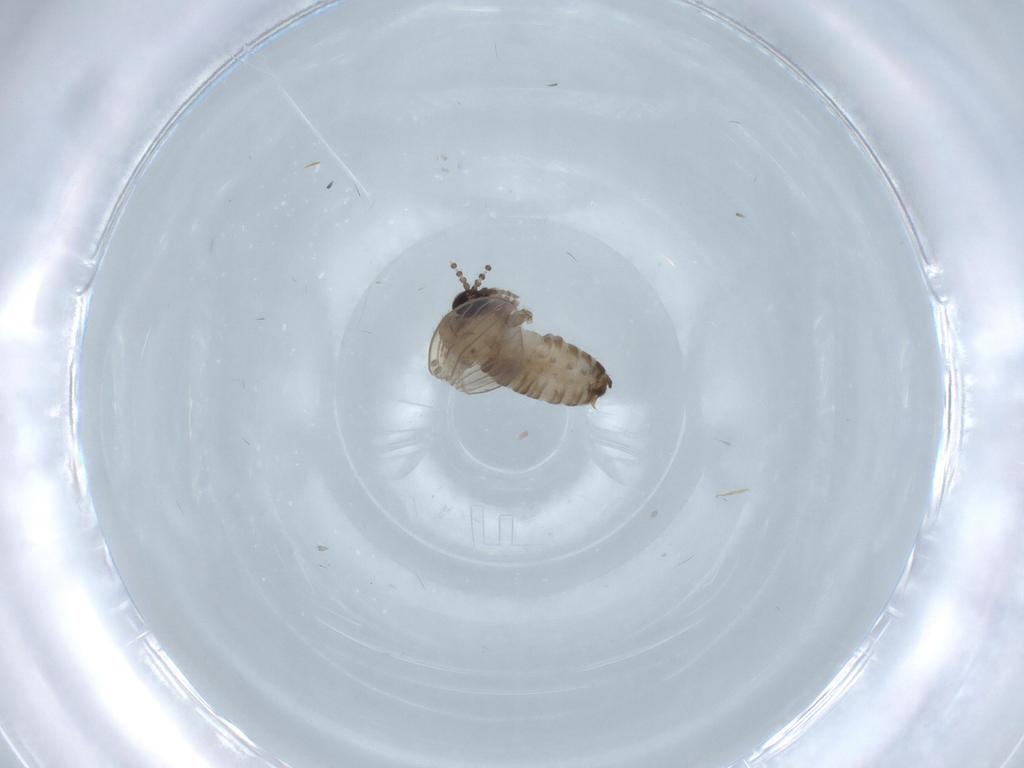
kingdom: Animalia
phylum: Arthropoda
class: Insecta
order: Diptera
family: Psychodidae
